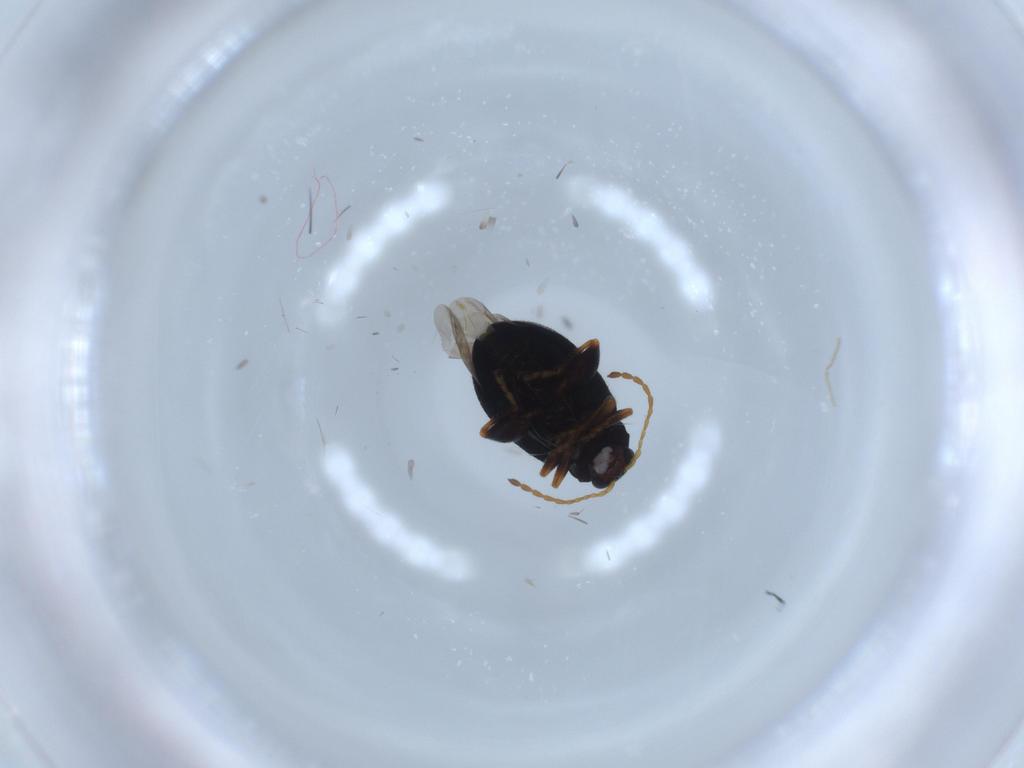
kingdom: Animalia
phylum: Arthropoda
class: Insecta
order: Coleoptera
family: Chrysomelidae
